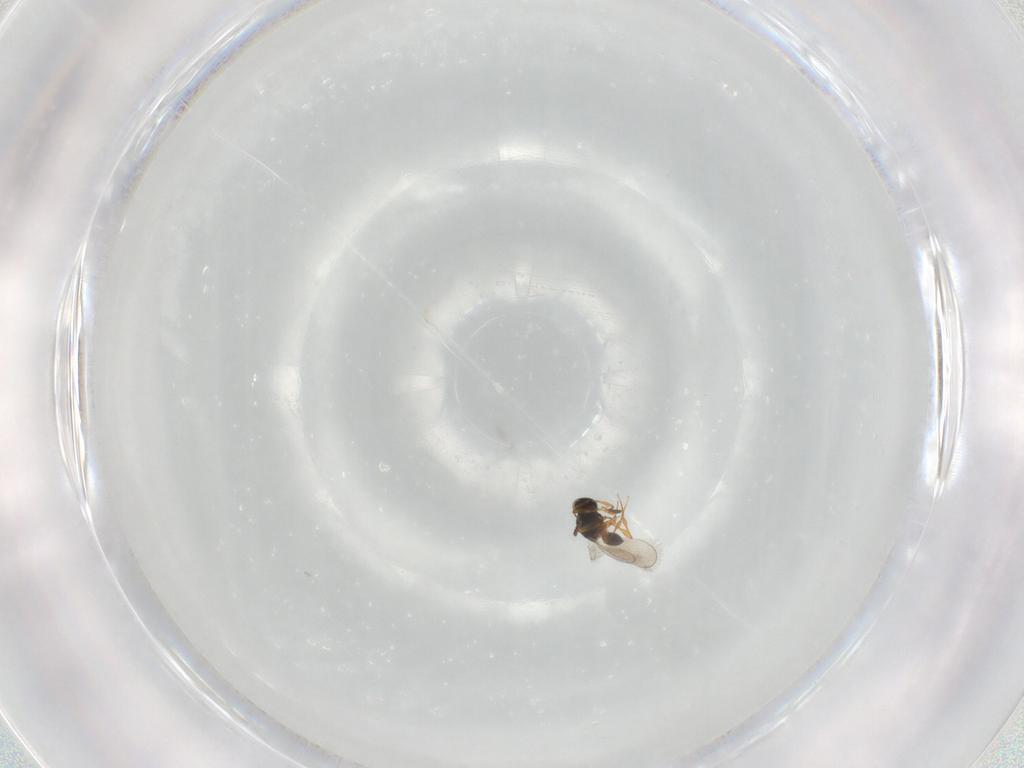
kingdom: Animalia
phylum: Arthropoda
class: Insecta
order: Hymenoptera
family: Platygastridae
